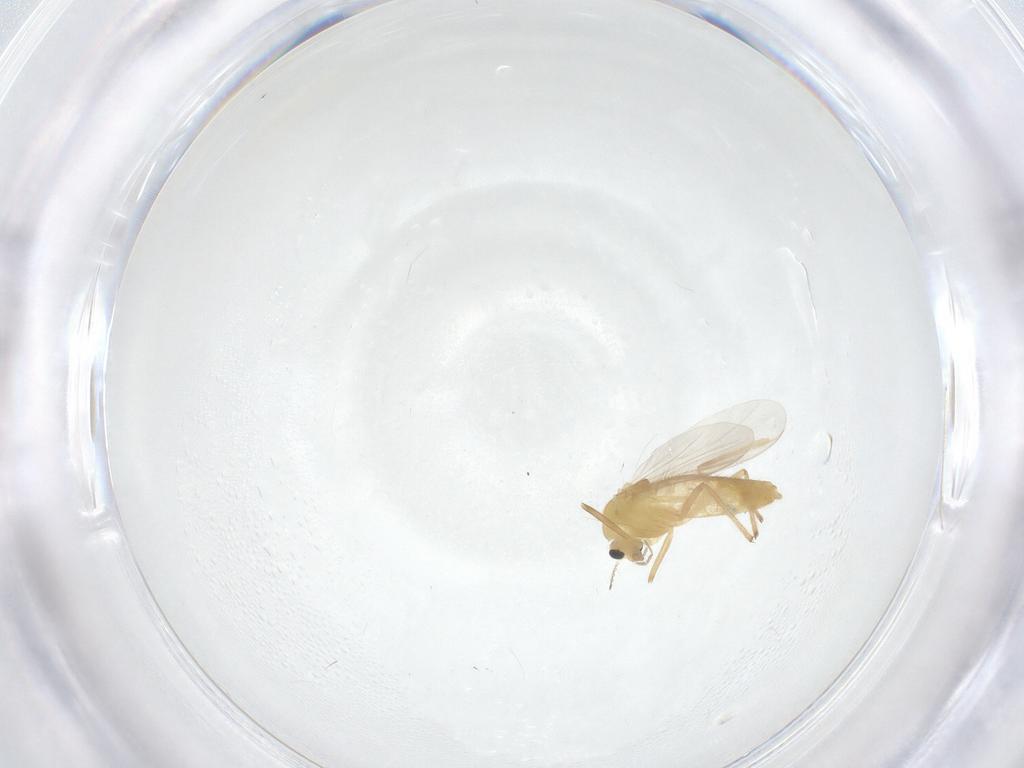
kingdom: Animalia
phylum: Arthropoda
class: Insecta
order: Diptera
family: Chironomidae
